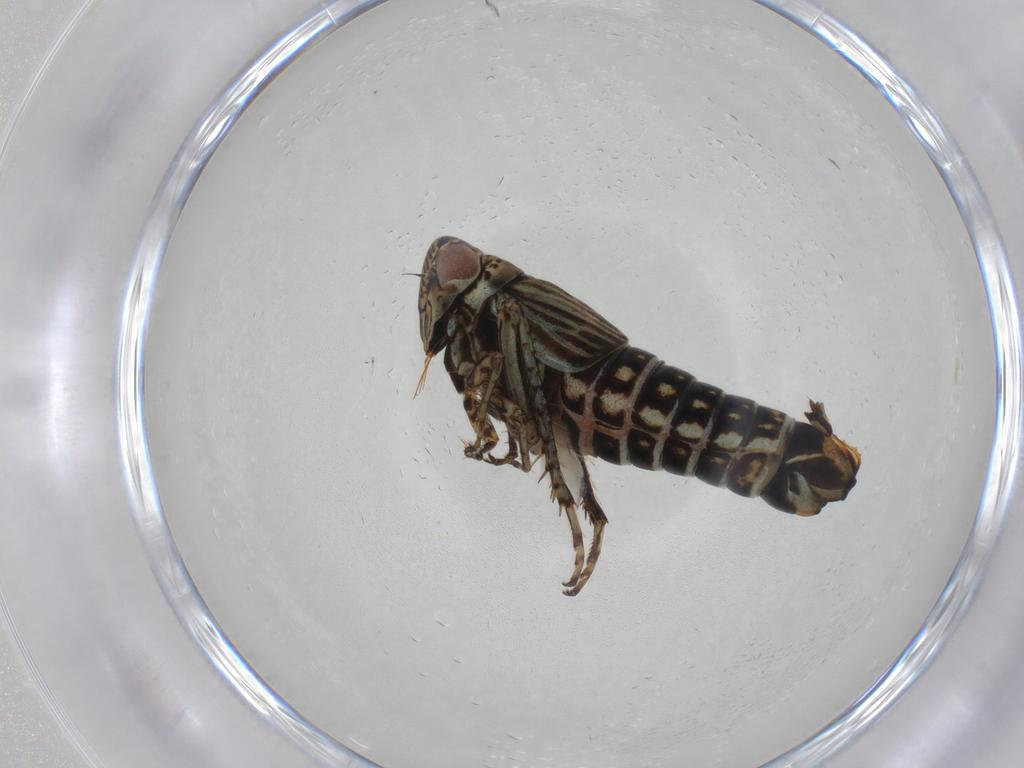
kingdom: Animalia
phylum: Arthropoda
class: Insecta
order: Hemiptera
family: Cicadellidae
